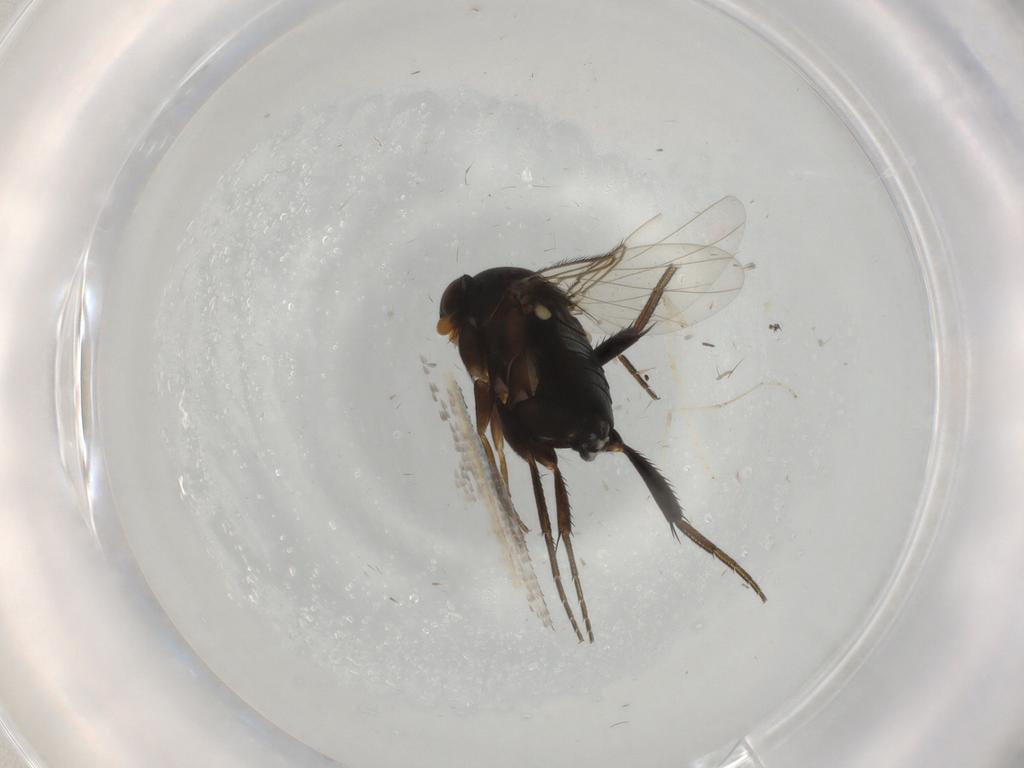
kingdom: Animalia
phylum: Arthropoda
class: Insecta
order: Diptera
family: Phoridae
